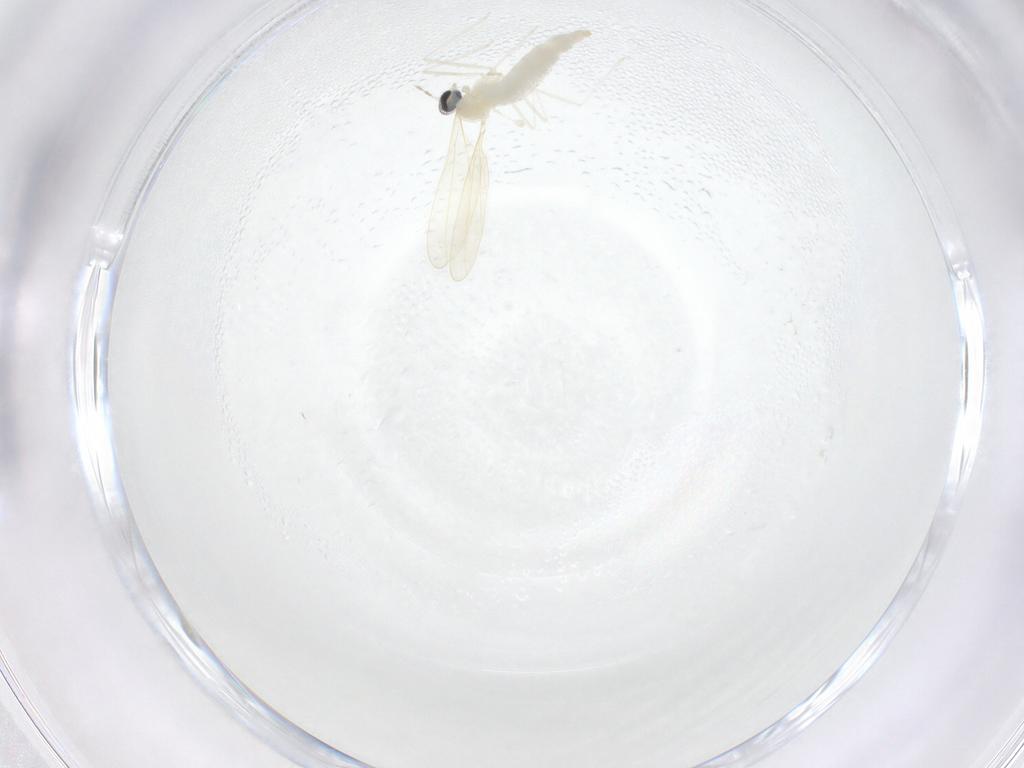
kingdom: Animalia
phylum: Arthropoda
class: Insecta
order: Diptera
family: Cecidomyiidae
